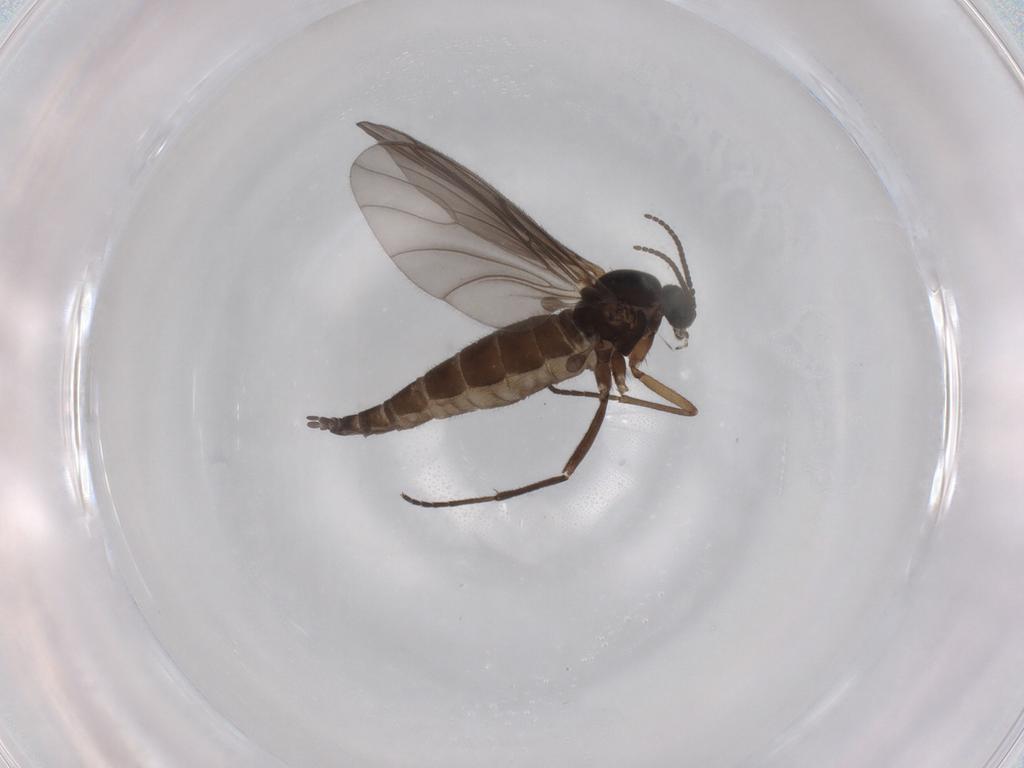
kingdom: Animalia
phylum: Arthropoda
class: Insecta
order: Diptera
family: Sciaridae
